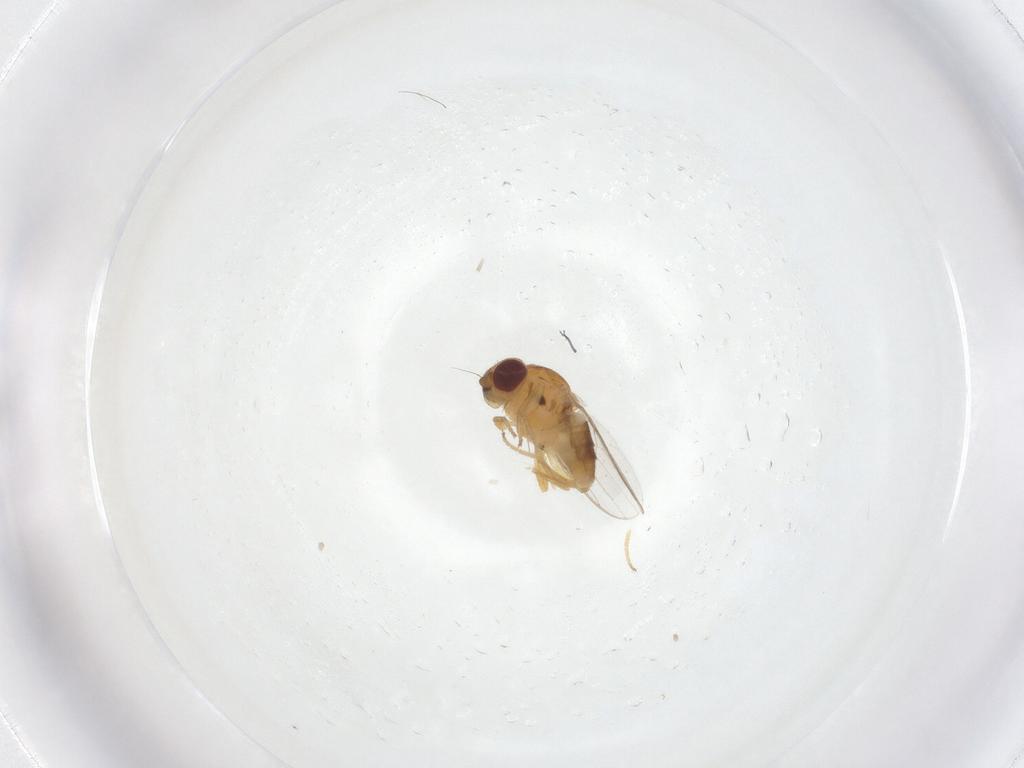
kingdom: Animalia
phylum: Arthropoda
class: Insecta
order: Diptera
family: Chloropidae
